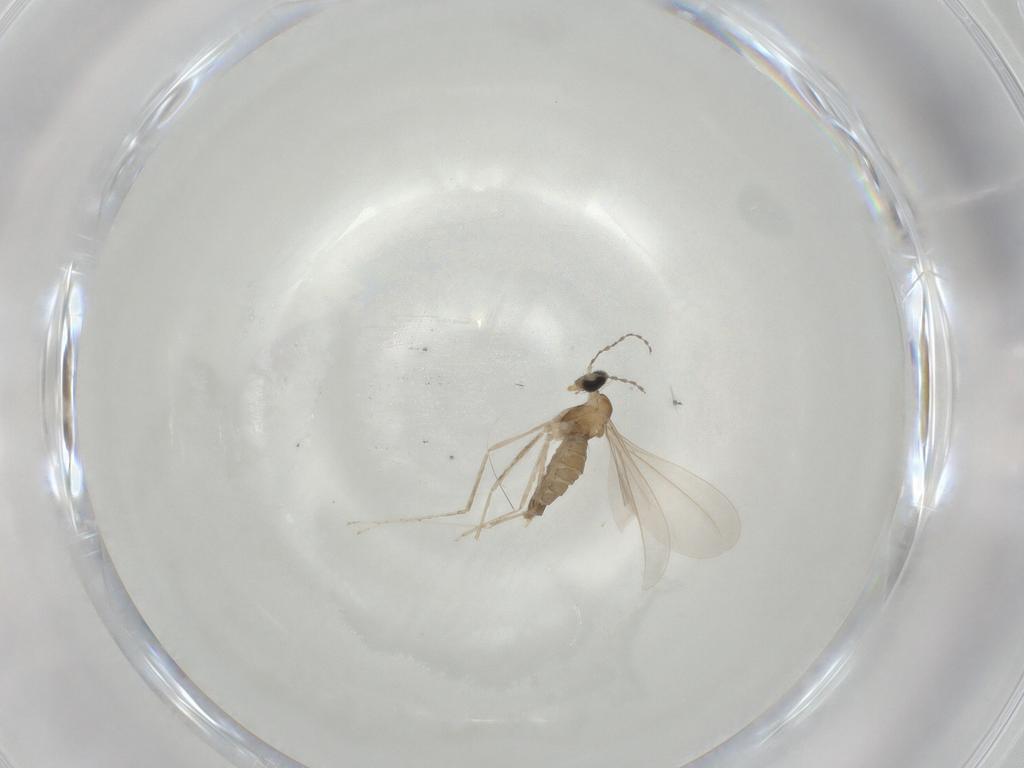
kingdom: Animalia
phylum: Arthropoda
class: Insecta
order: Diptera
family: Cecidomyiidae
